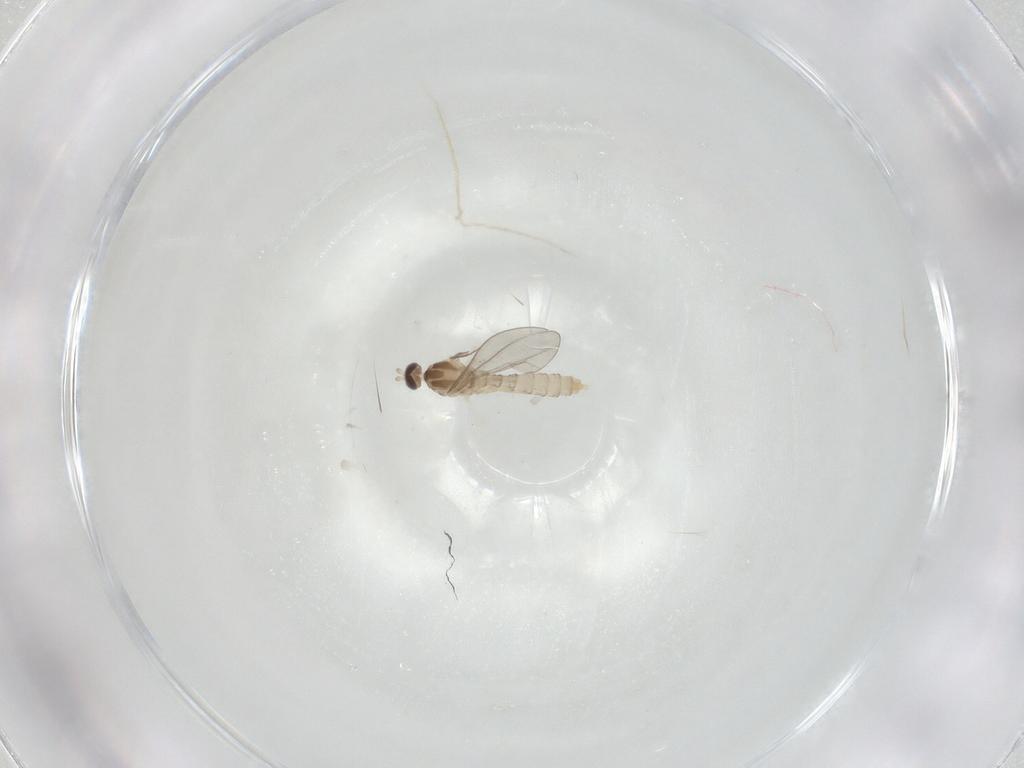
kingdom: Animalia
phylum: Arthropoda
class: Insecta
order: Diptera
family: Cecidomyiidae
